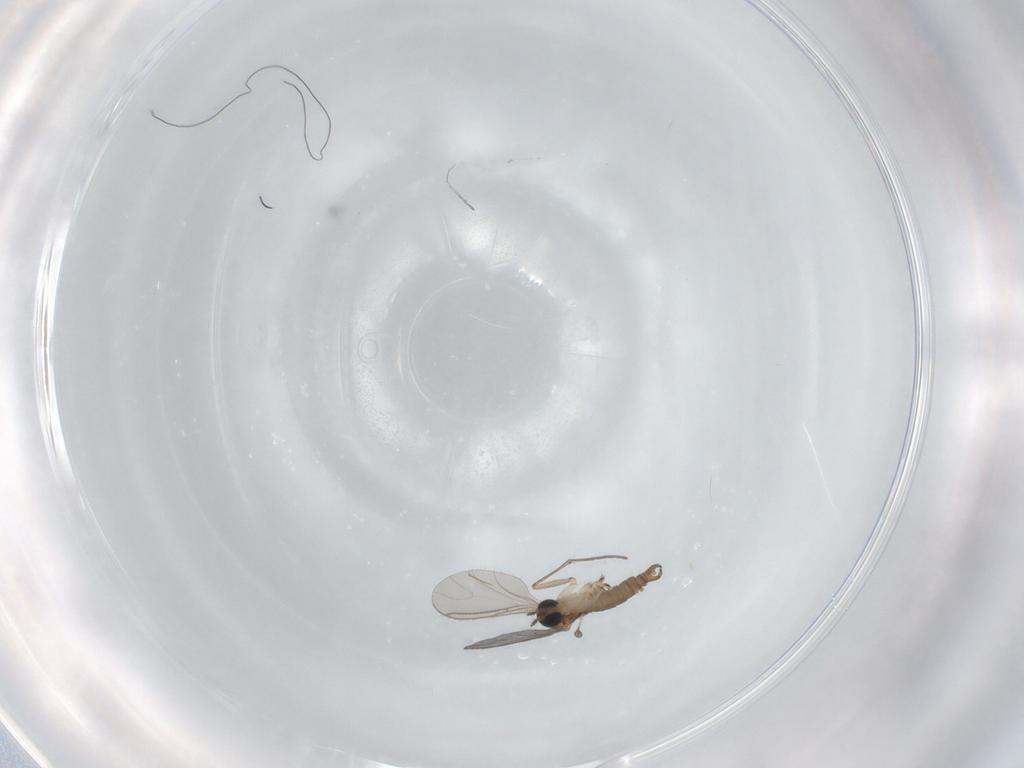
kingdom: Animalia
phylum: Arthropoda
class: Insecta
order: Diptera
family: Sciaridae
